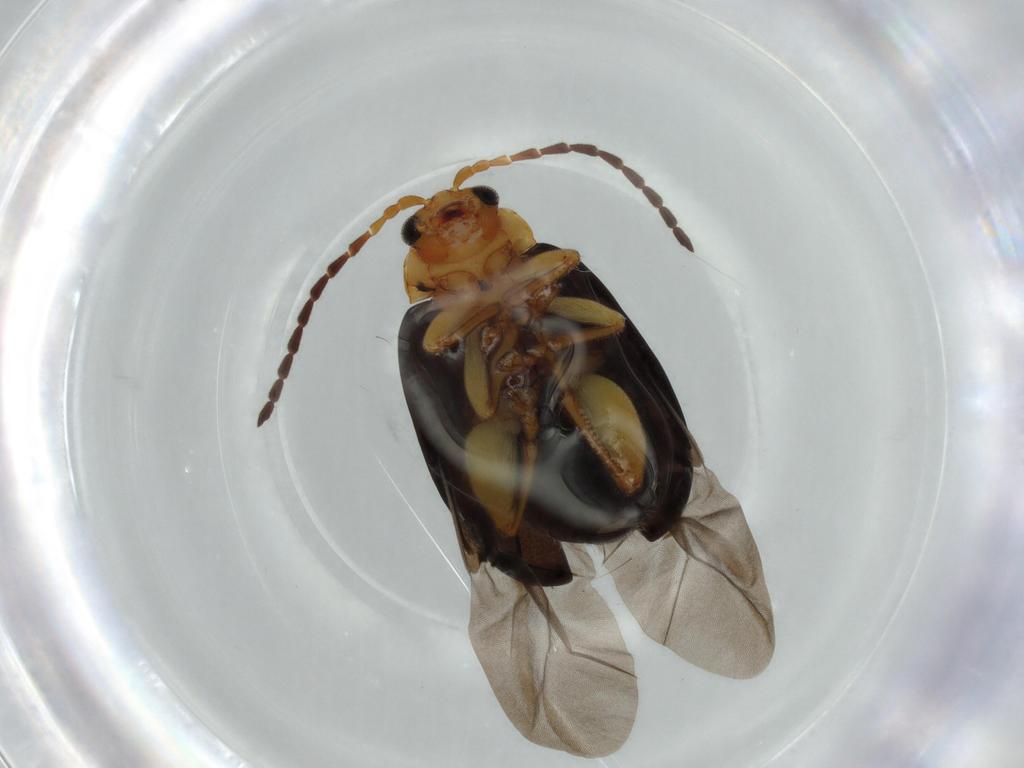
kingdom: Animalia
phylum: Arthropoda
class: Insecta
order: Coleoptera
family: Chrysomelidae
